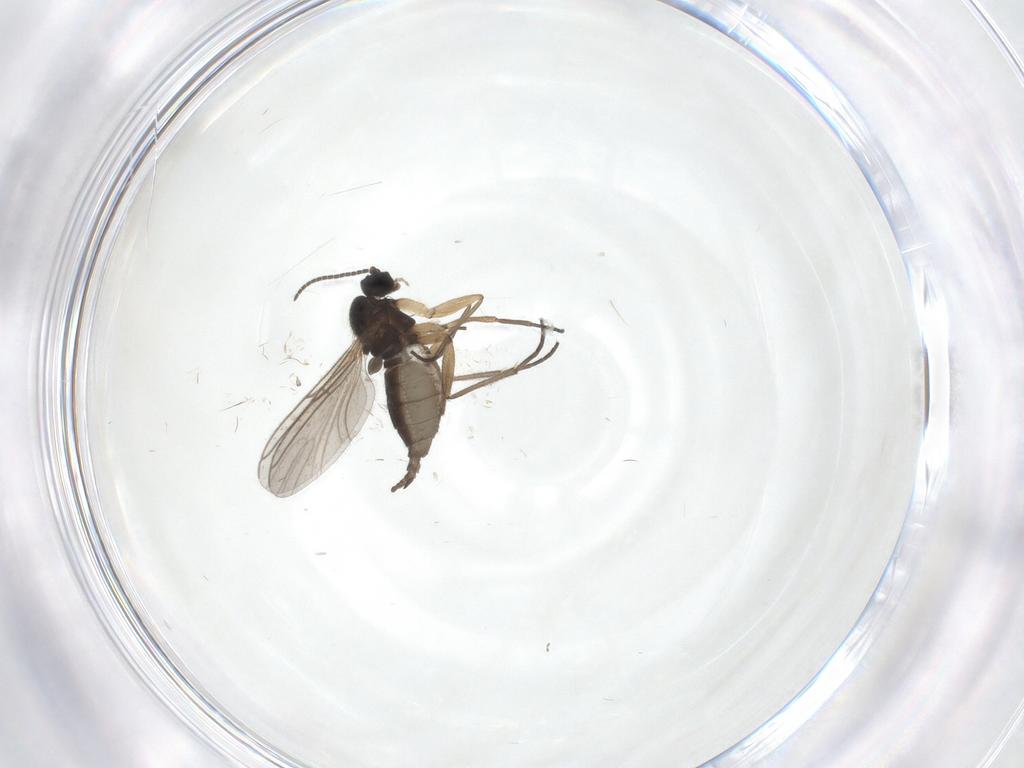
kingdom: Animalia
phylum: Arthropoda
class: Insecta
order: Diptera
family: Sciaridae
